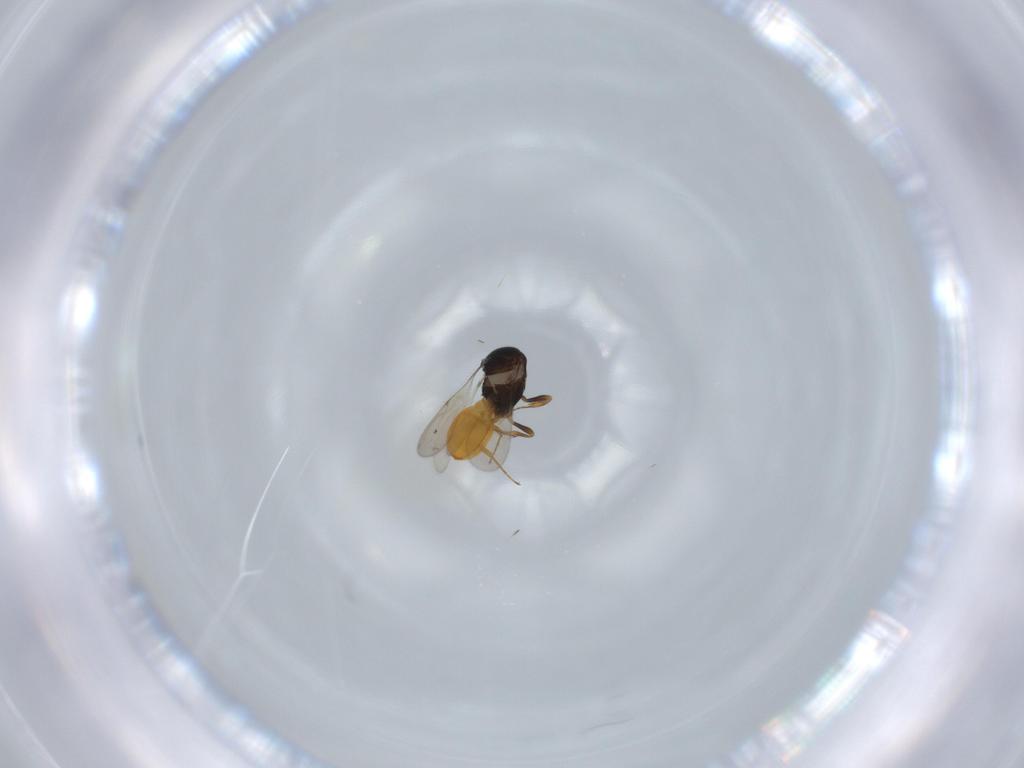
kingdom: Animalia
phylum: Arthropoda
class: Insecta
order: Hymenoptera
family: Scelionidae
